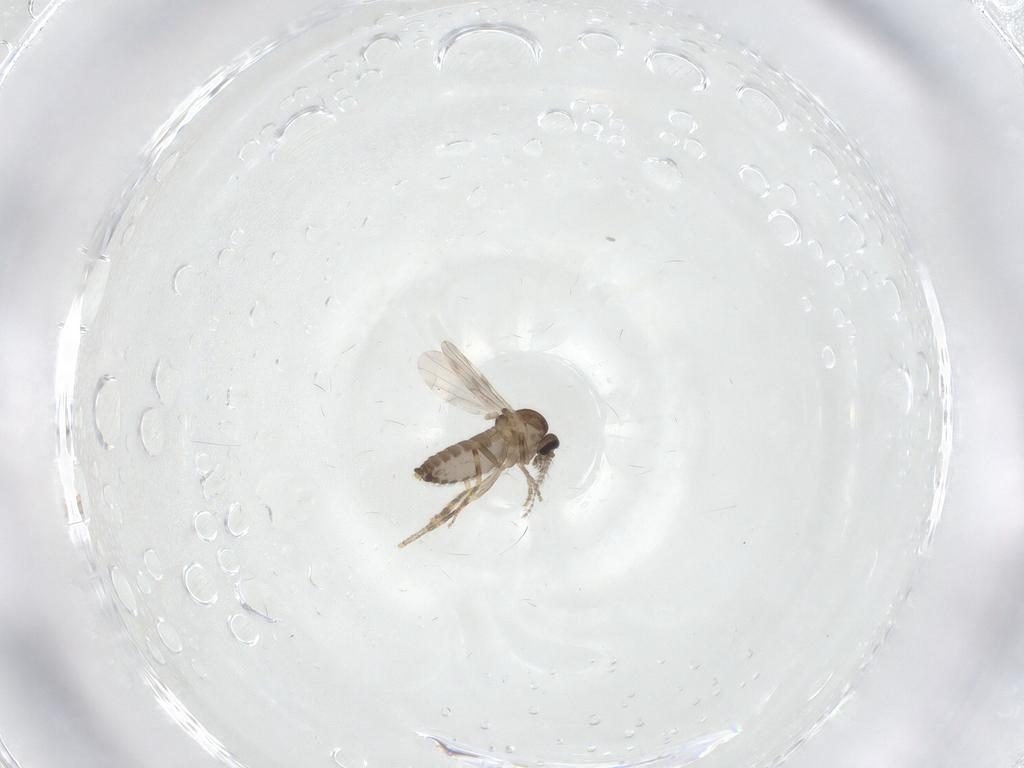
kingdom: Animalia
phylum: Arthropoda
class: Insecta
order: Diptera
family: Ceratopogonidae
